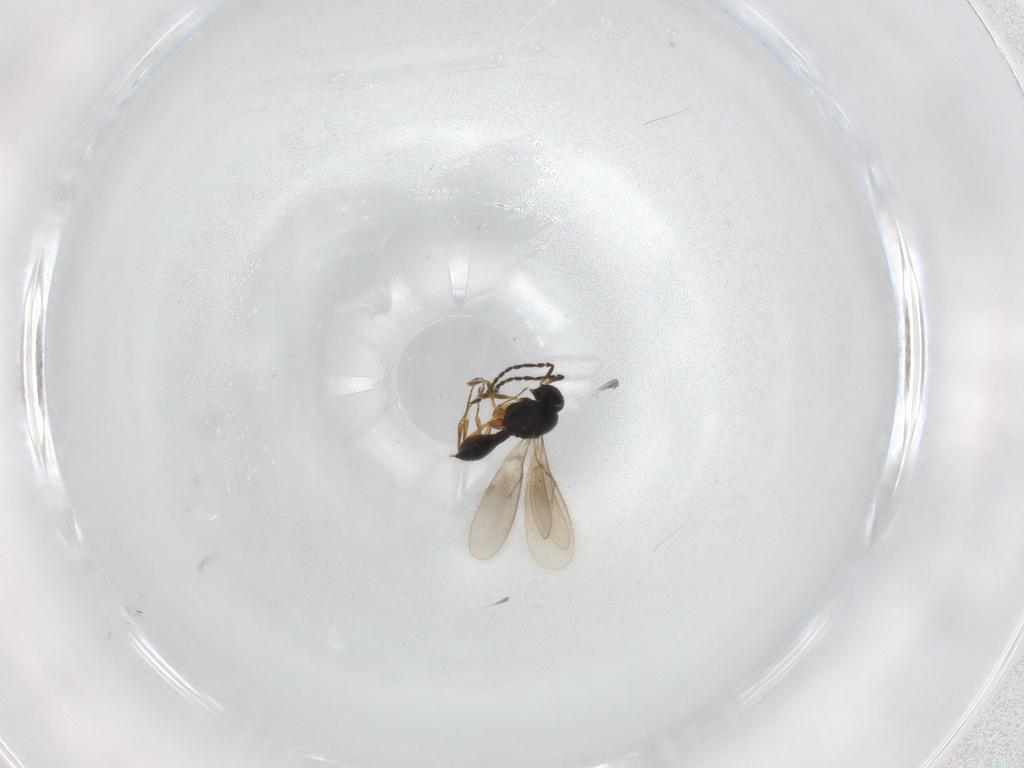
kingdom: Animalia
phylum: Arthropoda
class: Insecta
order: Hymenoptera
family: Scelionidae
